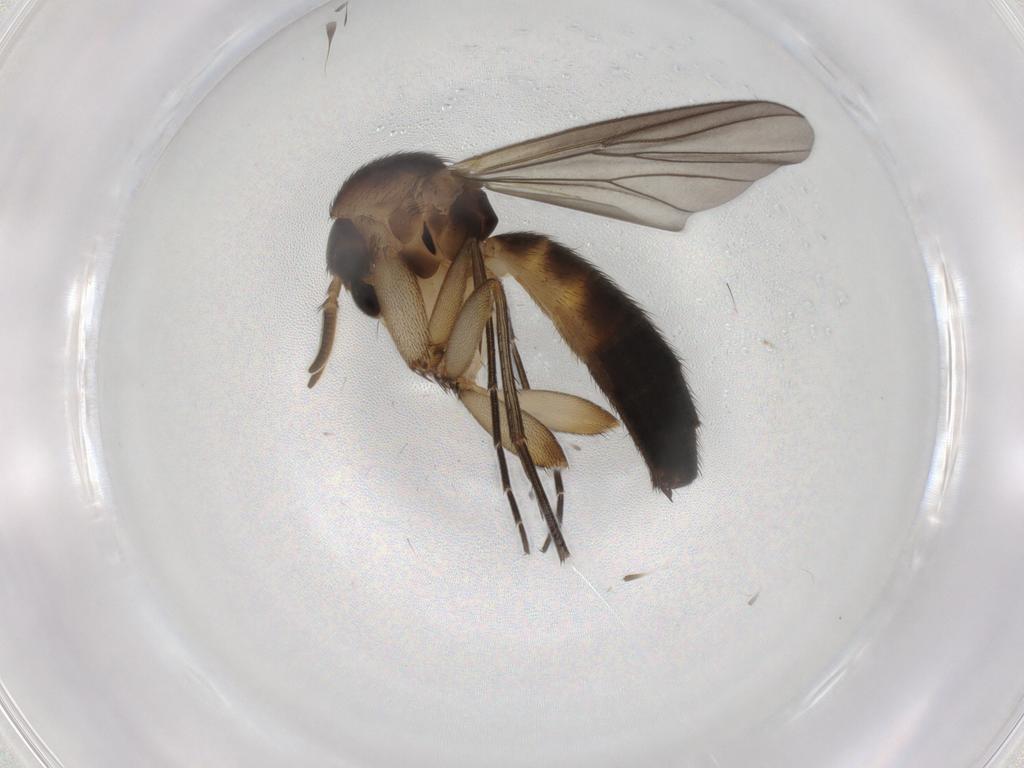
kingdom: Animalia
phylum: Arthropoda
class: Insecta
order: Diptera
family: Mycetophilidae
